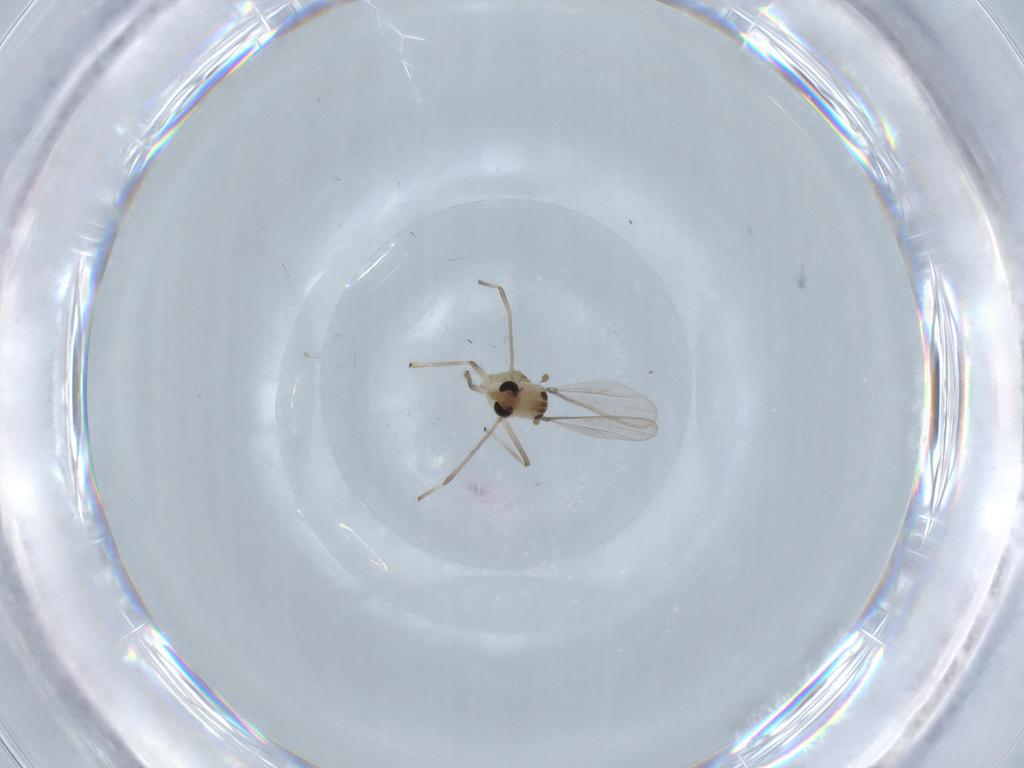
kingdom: Animalia
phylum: Arthropoda
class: Insecta
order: Diptera
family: Chironomidae
